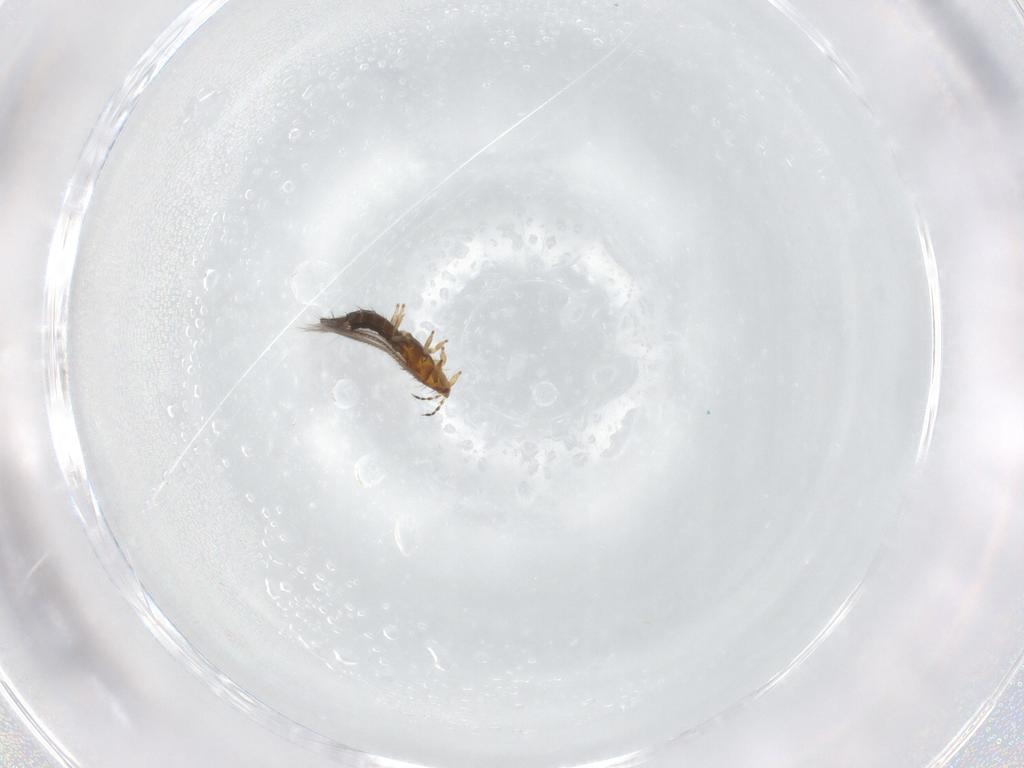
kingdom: Animalia
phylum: Arthropoda
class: Insecta
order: Thysanoptera
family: Thripidae
